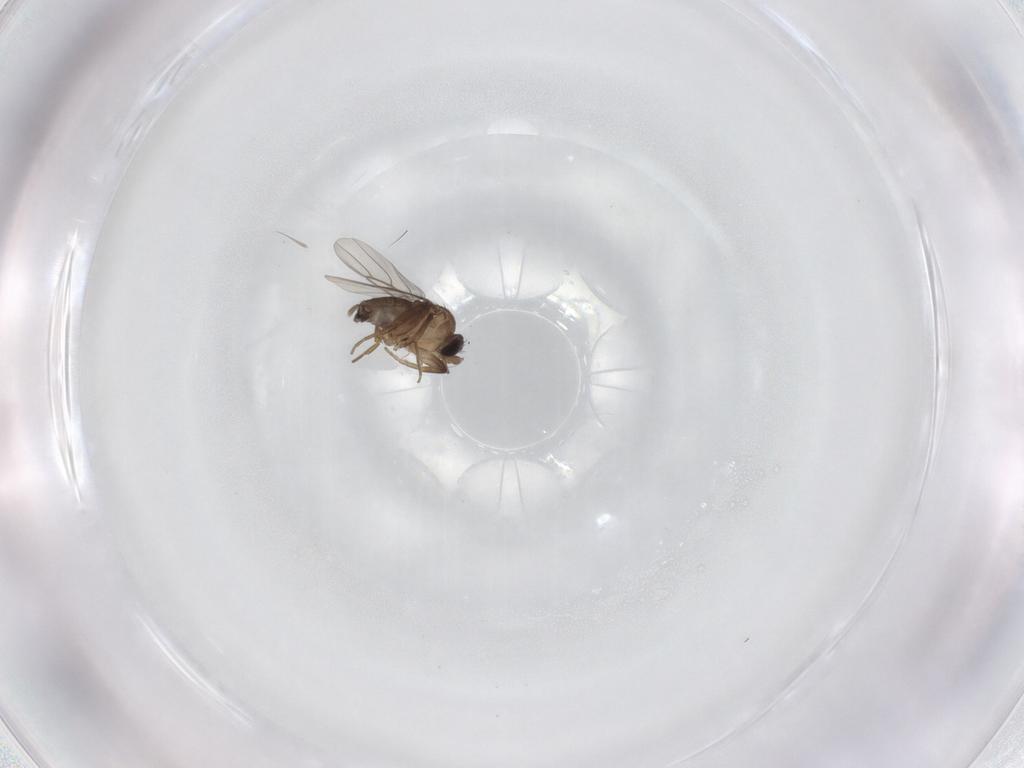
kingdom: Animalia
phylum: Arthropoda
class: Insecta
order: Diptera
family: Phoridae
